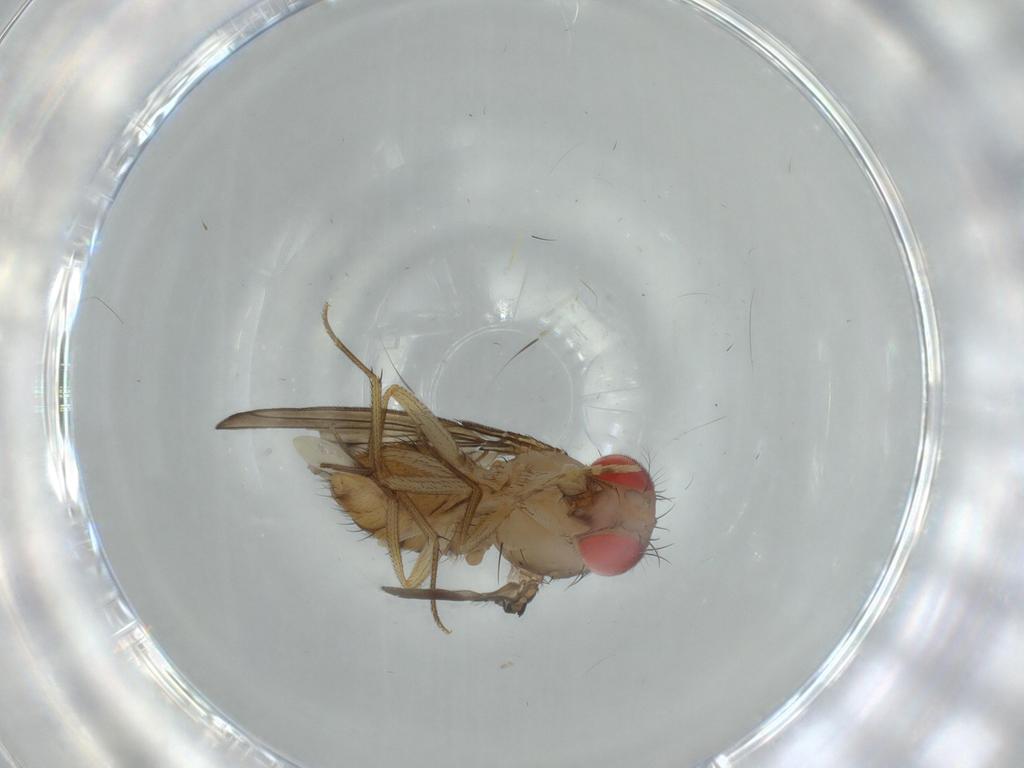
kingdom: Animalia
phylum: Arthropoda
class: Insecta
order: Diptera
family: Drosophilidae
